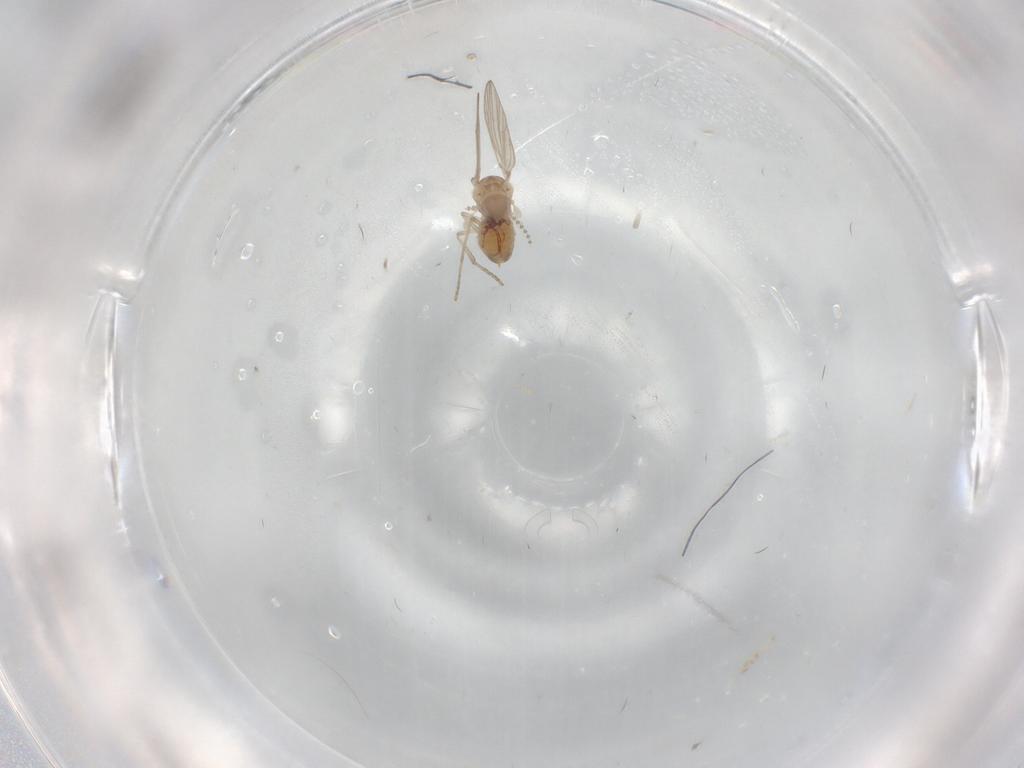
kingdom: Animalia
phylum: Arthropoda
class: Insecta
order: Diptera
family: Psychodidae
